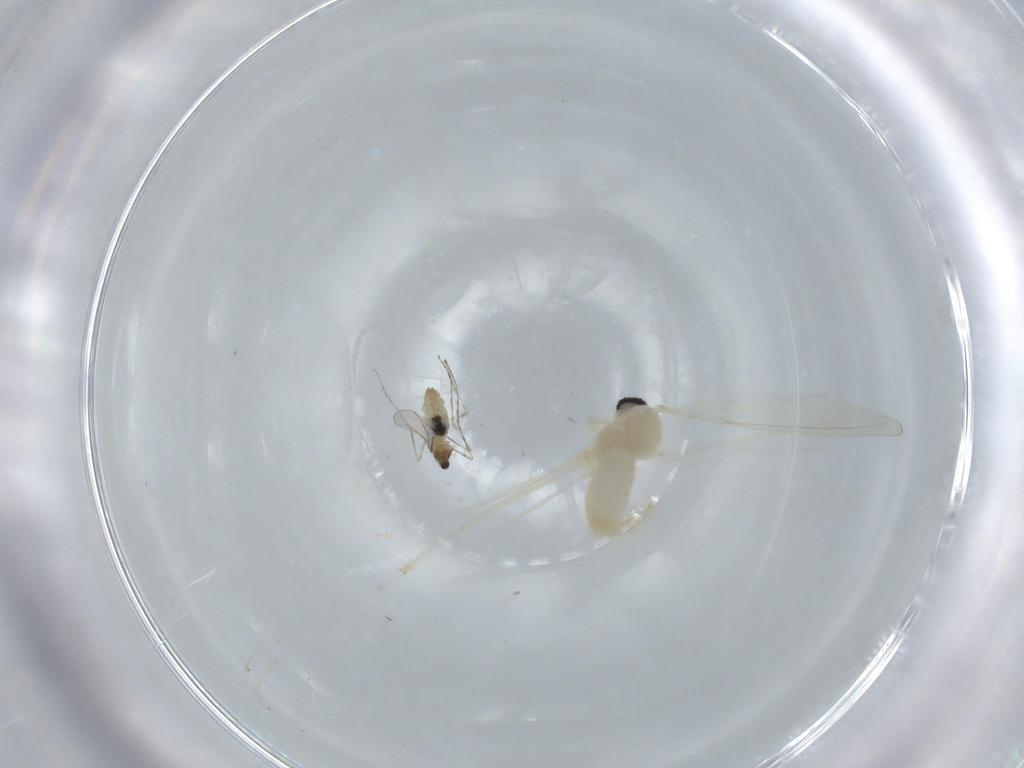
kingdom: Animalia
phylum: Arthropoda
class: Insecta
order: Diptera
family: Cecidomyiidae
